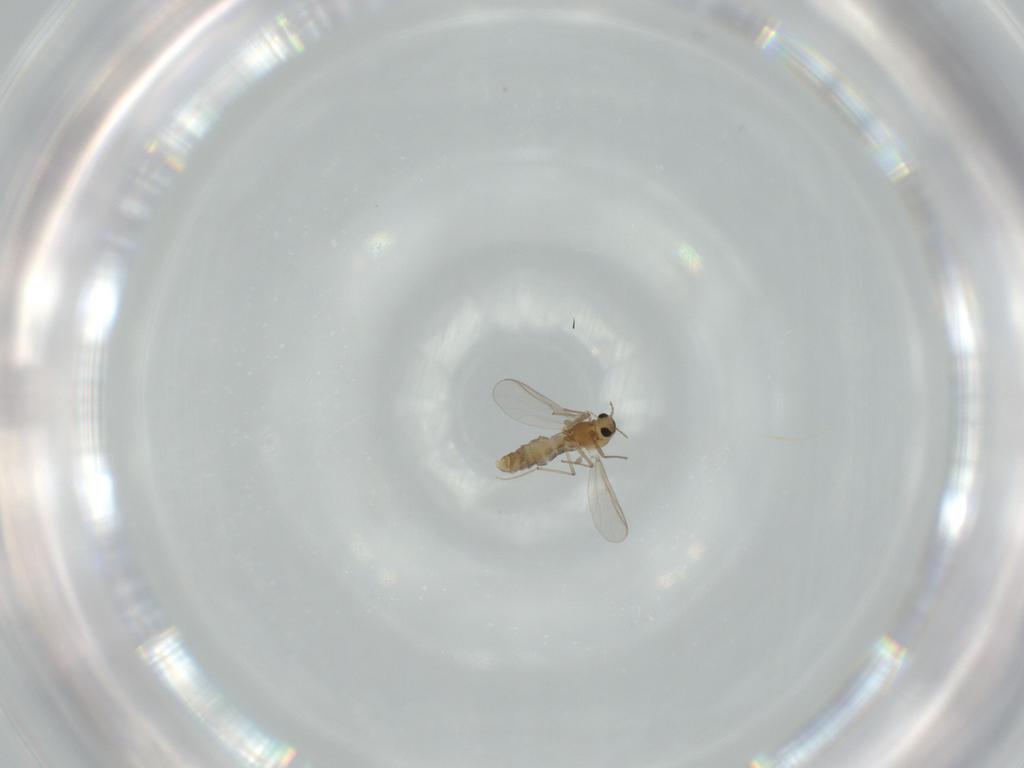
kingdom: Animalia
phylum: Arthropoda
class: Insecta
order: Diptera
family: Chironomidae
